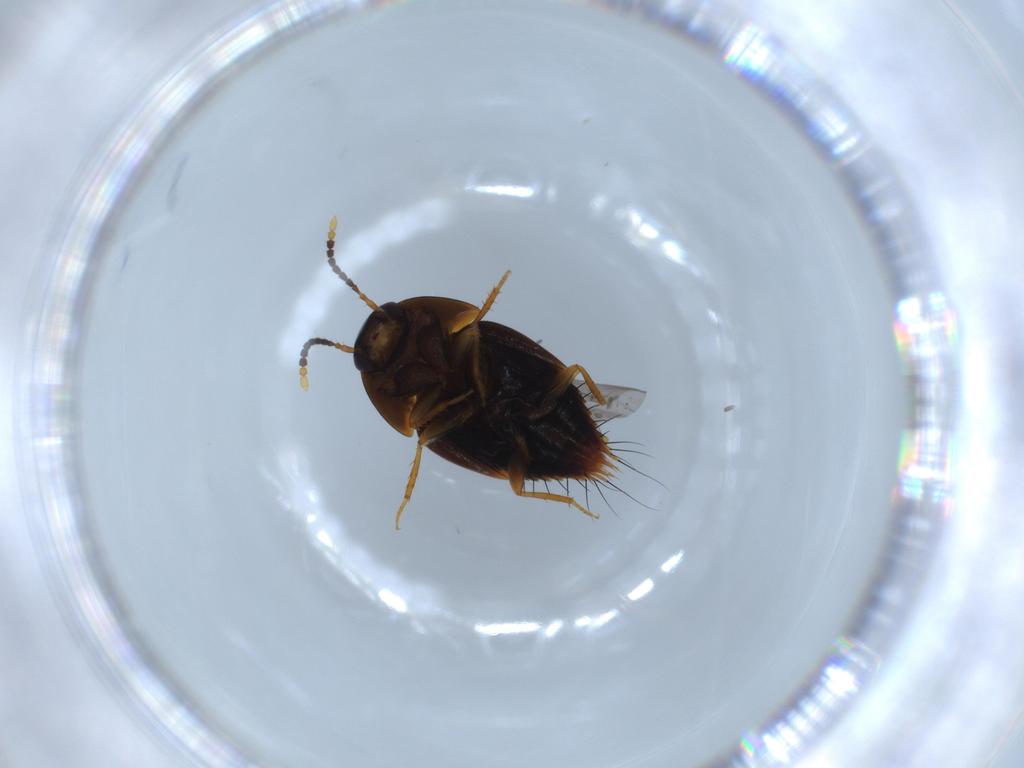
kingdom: Animalia
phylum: Arthropoda
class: Insecta
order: Coleoptera
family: Staphylinidae
